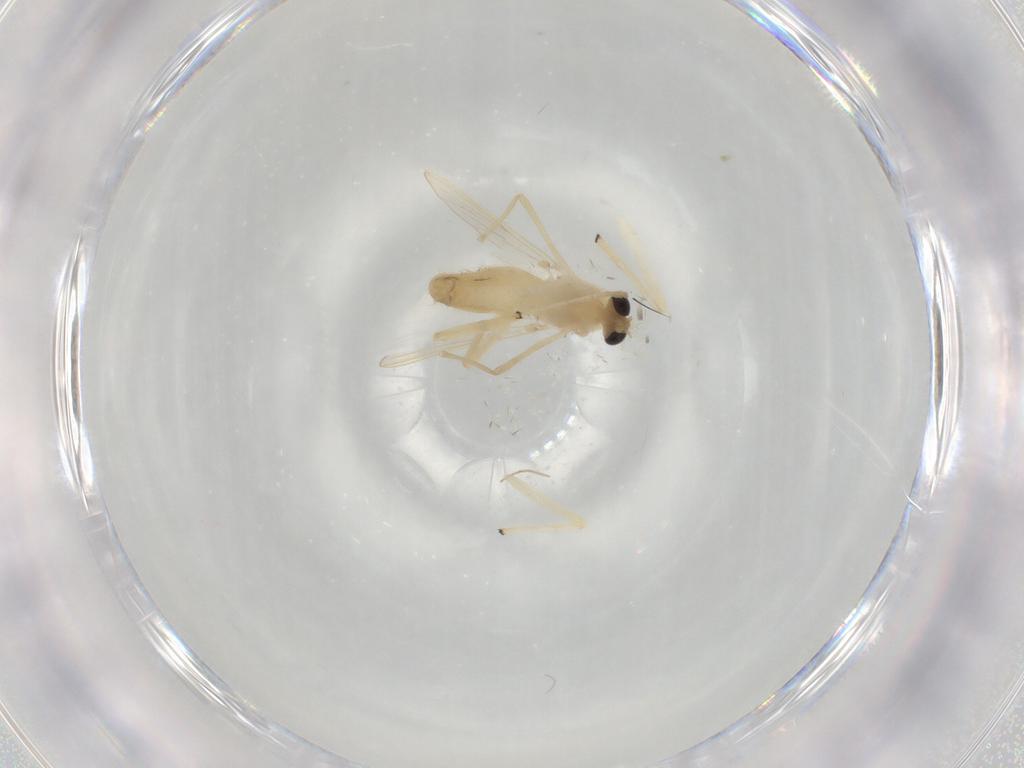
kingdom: Animalia
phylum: Arthropoda
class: Insecta
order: Diptera
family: Chironomidae
